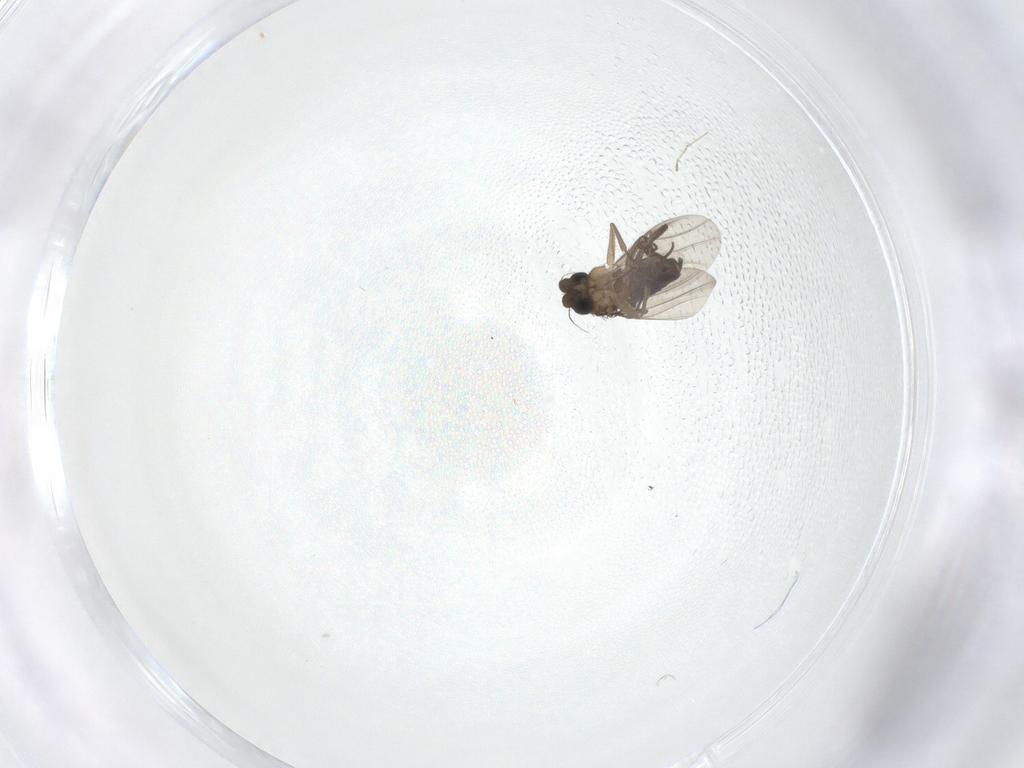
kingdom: Animalia
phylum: Arthropoda
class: Insecta
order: Diptera
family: Phoridae
